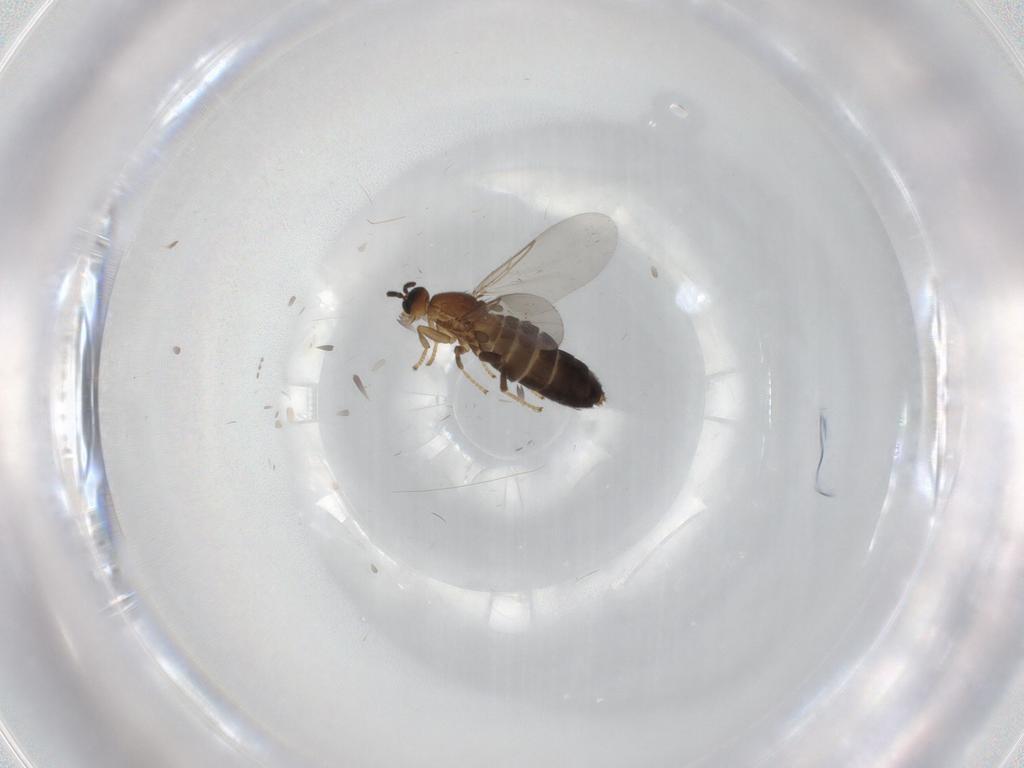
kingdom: Animalia
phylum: Arthropoda
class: Insecta
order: Diptera
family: Scatopsidae
